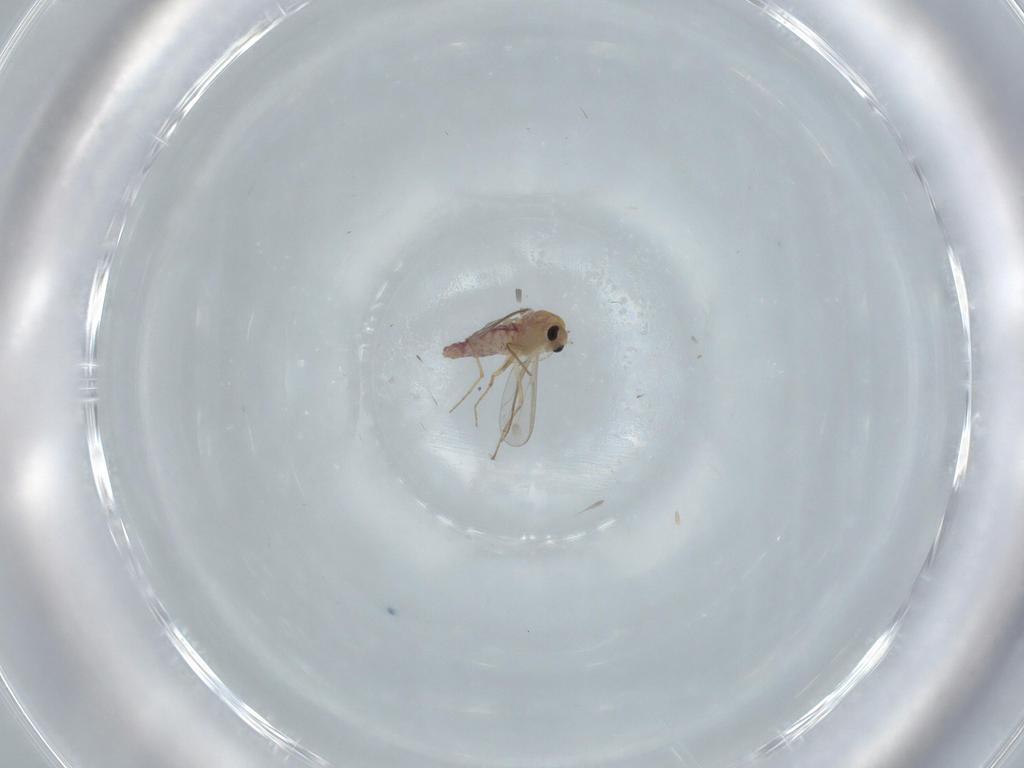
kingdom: Animalia
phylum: Arthropoda
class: Insecta
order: Diptera
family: Chironomidae
